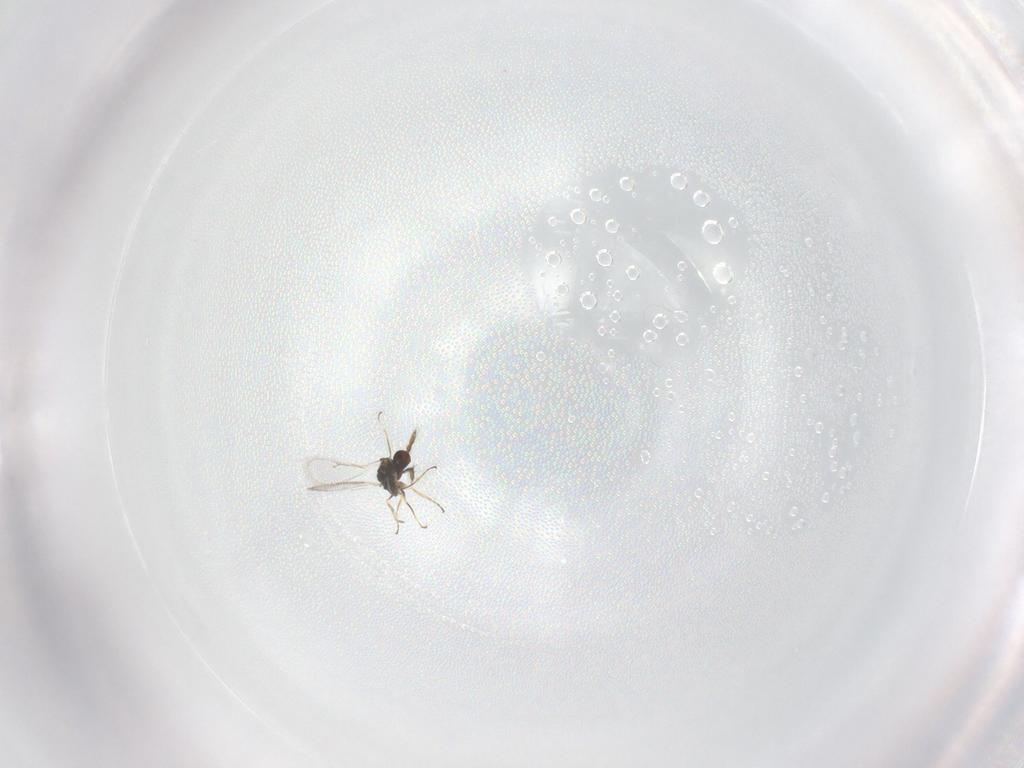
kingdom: Animalia
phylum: Arthropoda
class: Insecta
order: Hymenoptera
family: Eulophidae
